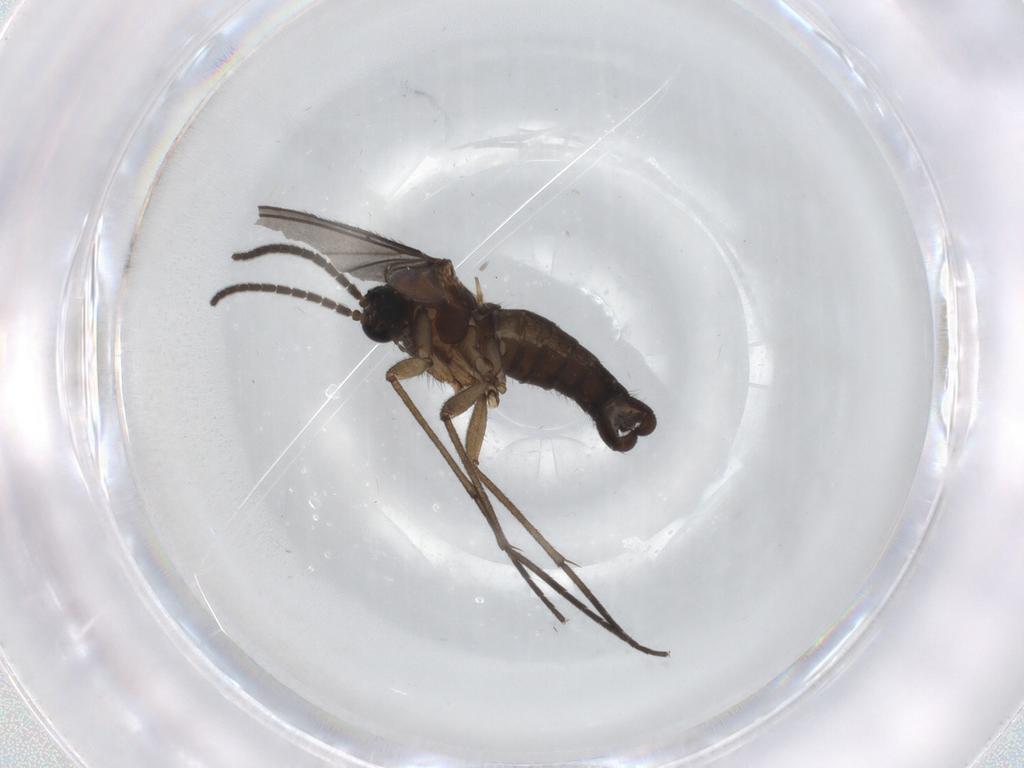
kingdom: Animalia
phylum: Arthropoda
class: Insecta
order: Diptera
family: Sciaridae
